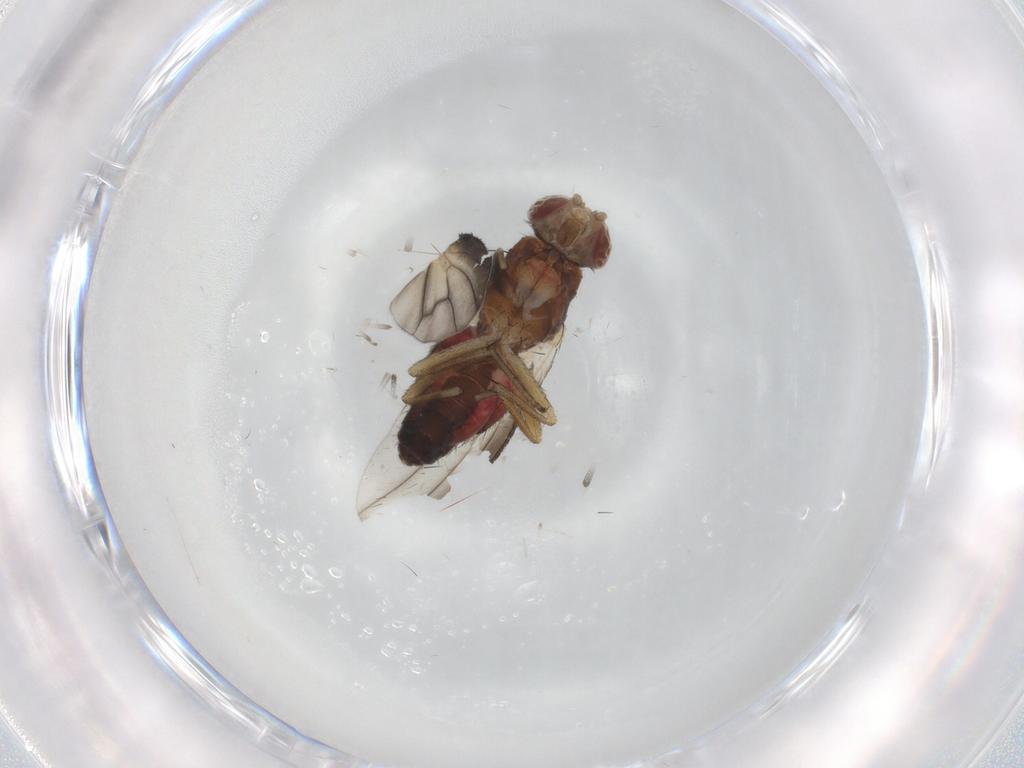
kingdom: Animalia
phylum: Arthropoda
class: Insecta
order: Diptera
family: Heleomyzidae
